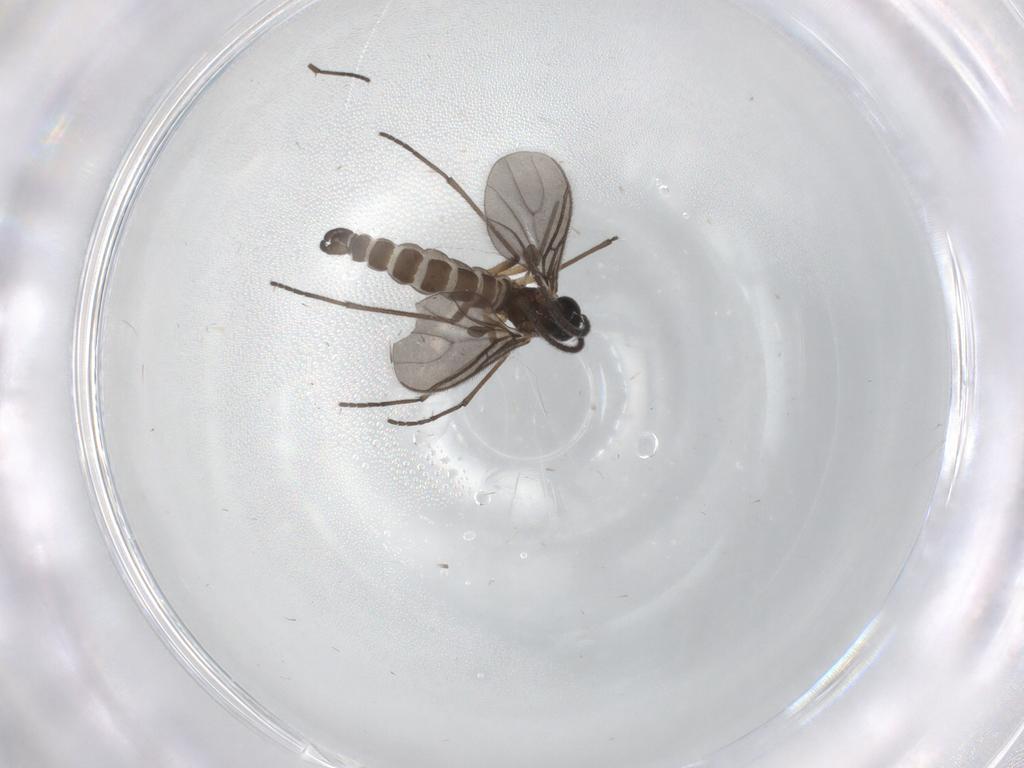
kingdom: Animalia
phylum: Arthropoda
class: Insecta
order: Diptera
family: Sciaridae
